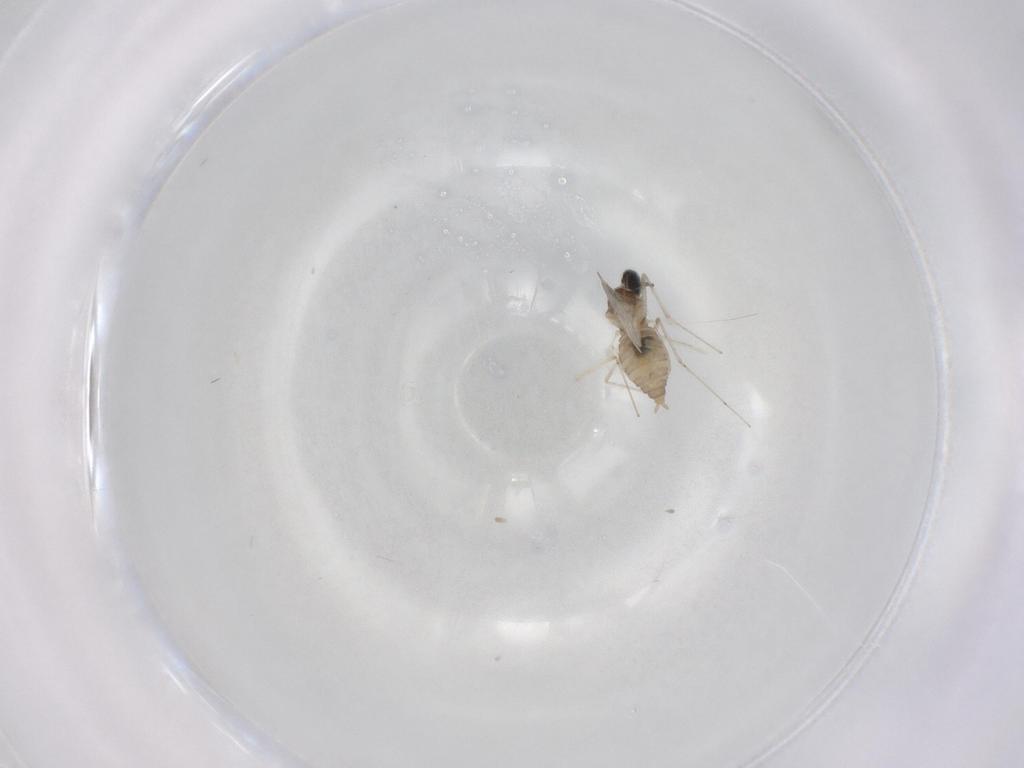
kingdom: Animalia
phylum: Arthropoda
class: Insecta
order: Diptera
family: Cecidomyiidae
